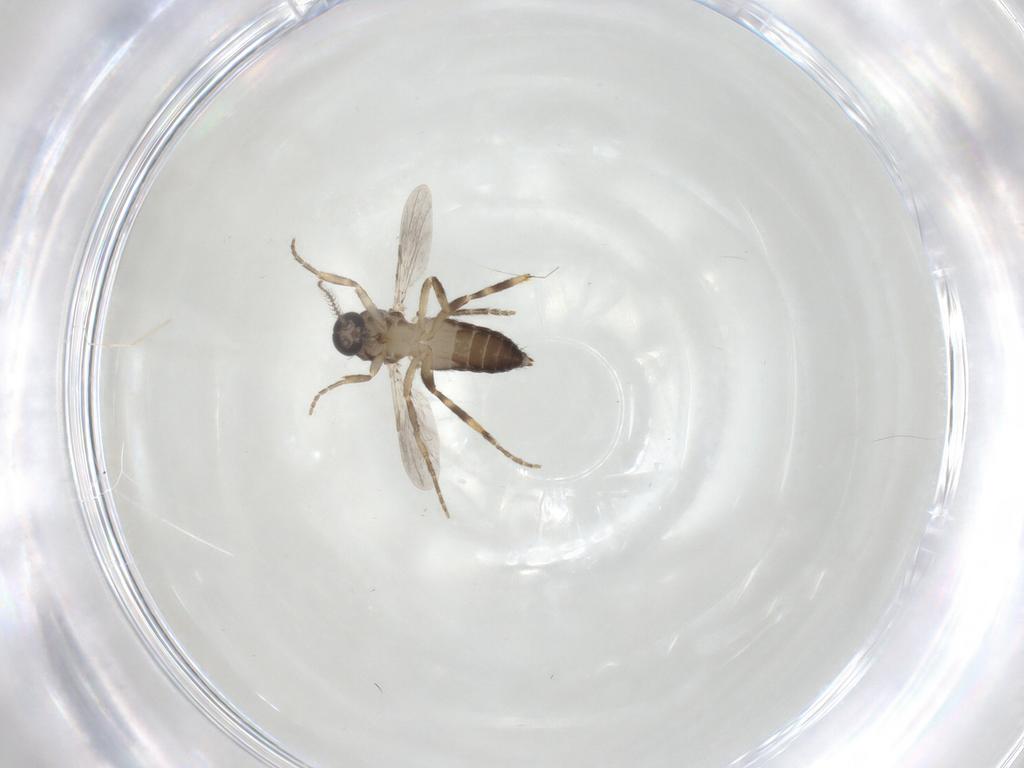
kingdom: Animalia
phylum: Arthropoda
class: Insecta
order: Diptera
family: Ceratopogonidae
